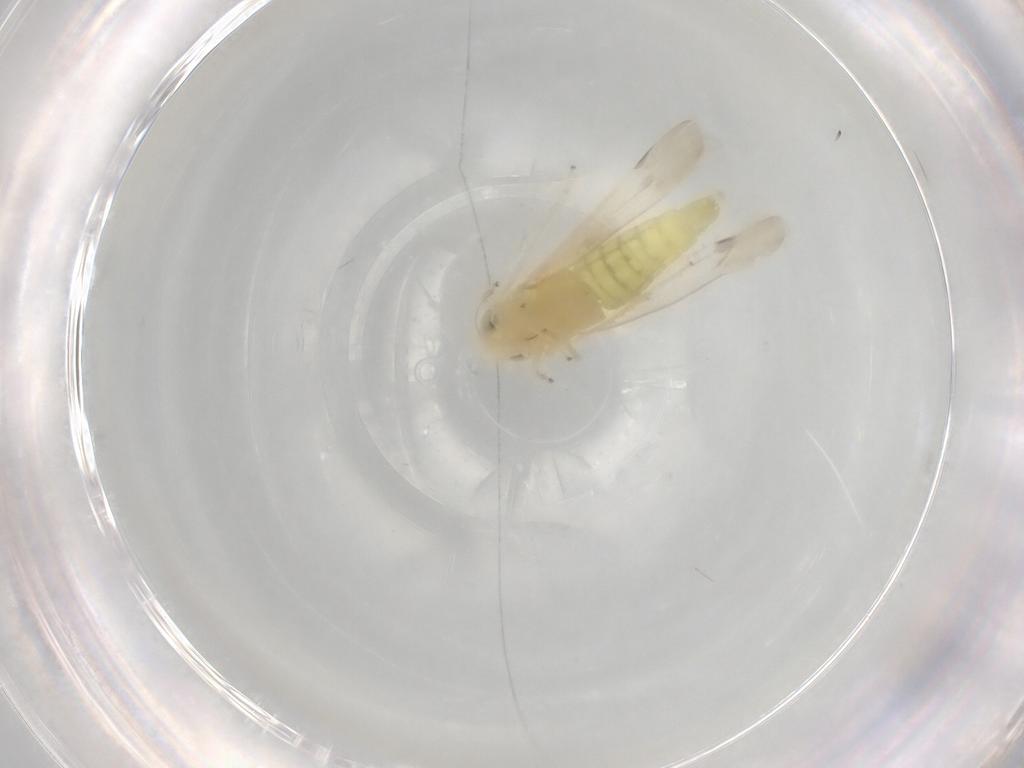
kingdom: Animalia
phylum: Arthropoda
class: Insecta
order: Hemiptera
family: Cicadellidae
